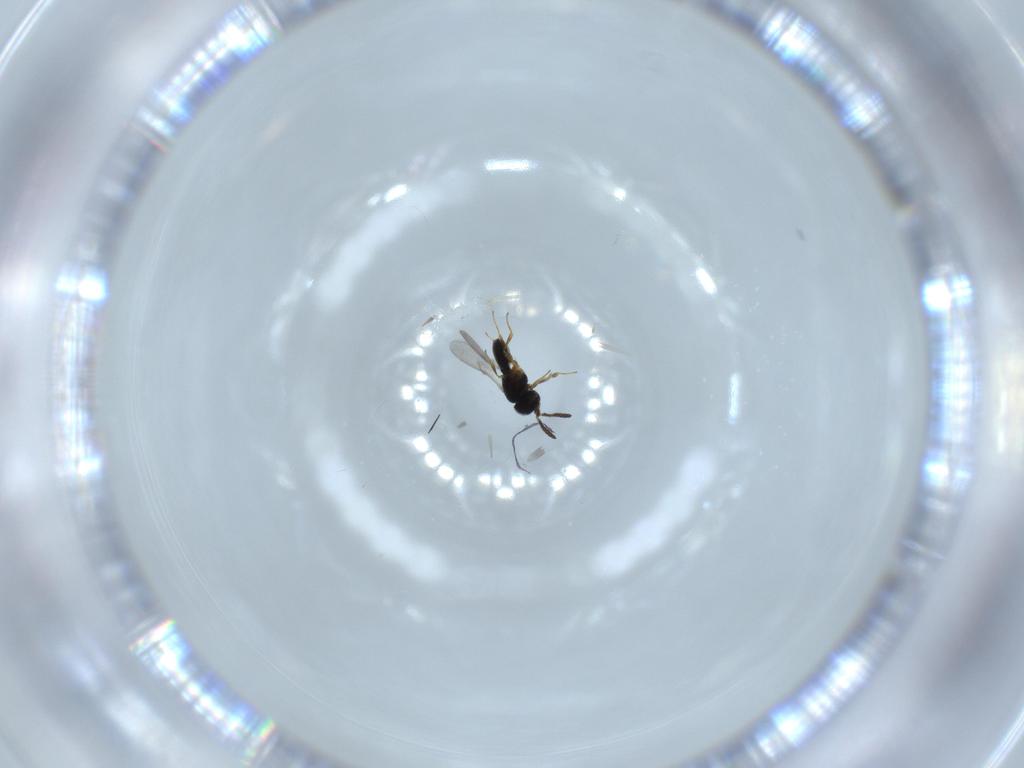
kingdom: Animalia
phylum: Arthropoda
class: Insecta
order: Hymenoptera
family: Scelionidae
